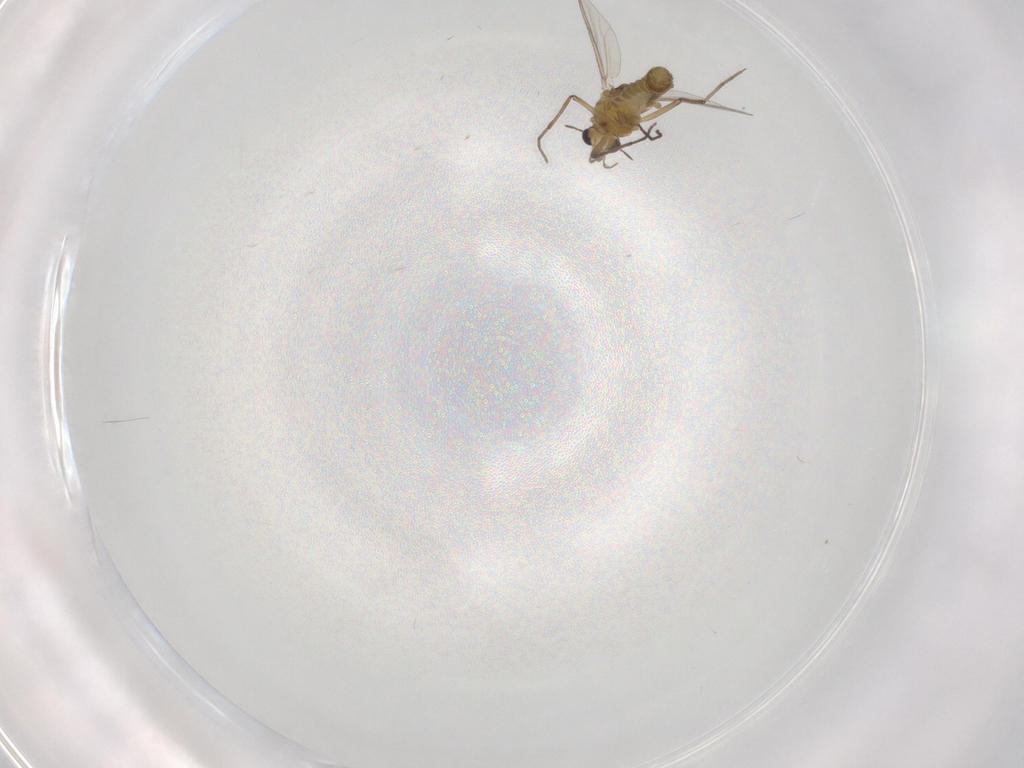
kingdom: Animalia
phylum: Arthropoda
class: Insecta
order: Diptera
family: Chironomidae
